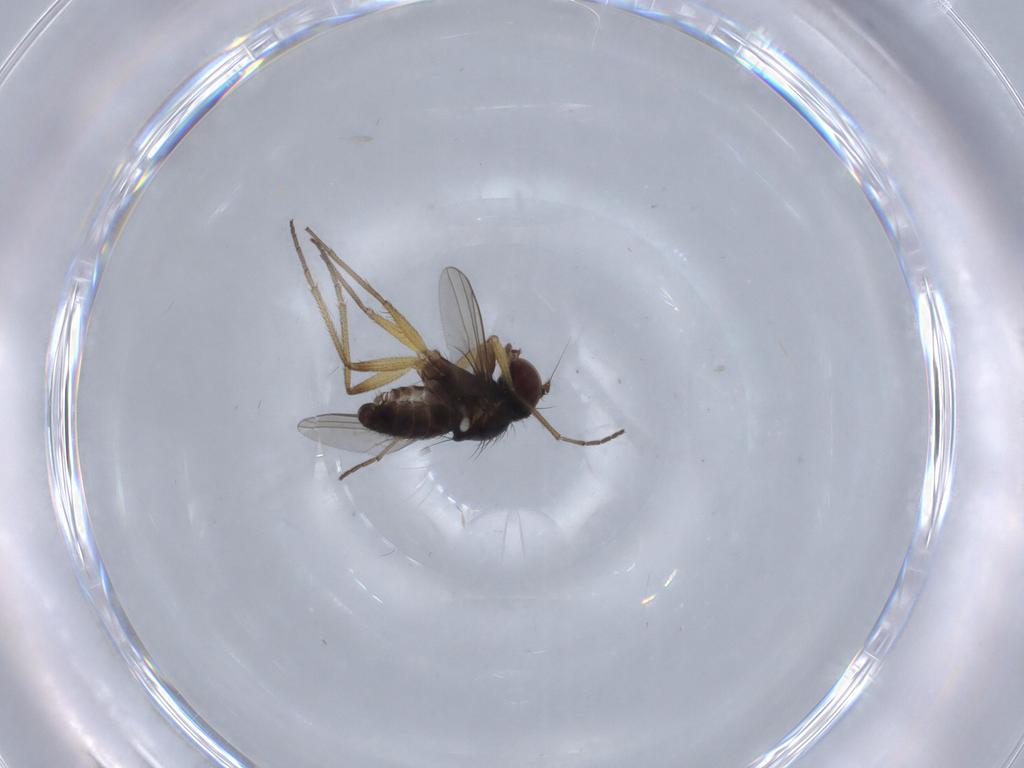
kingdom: Animalia
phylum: Arthropoda
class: Insecta
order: Diptera
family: Dolichopodidae
